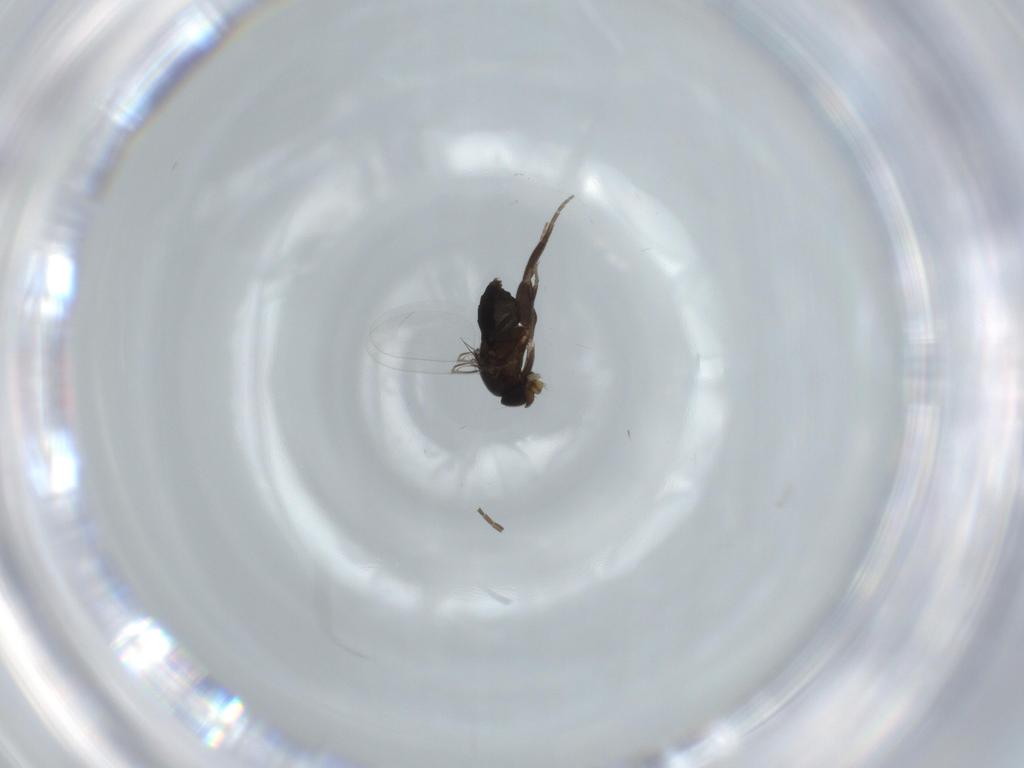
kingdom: Animalia
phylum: Arthropoda
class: Insecta
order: Diptera
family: Phoridae
